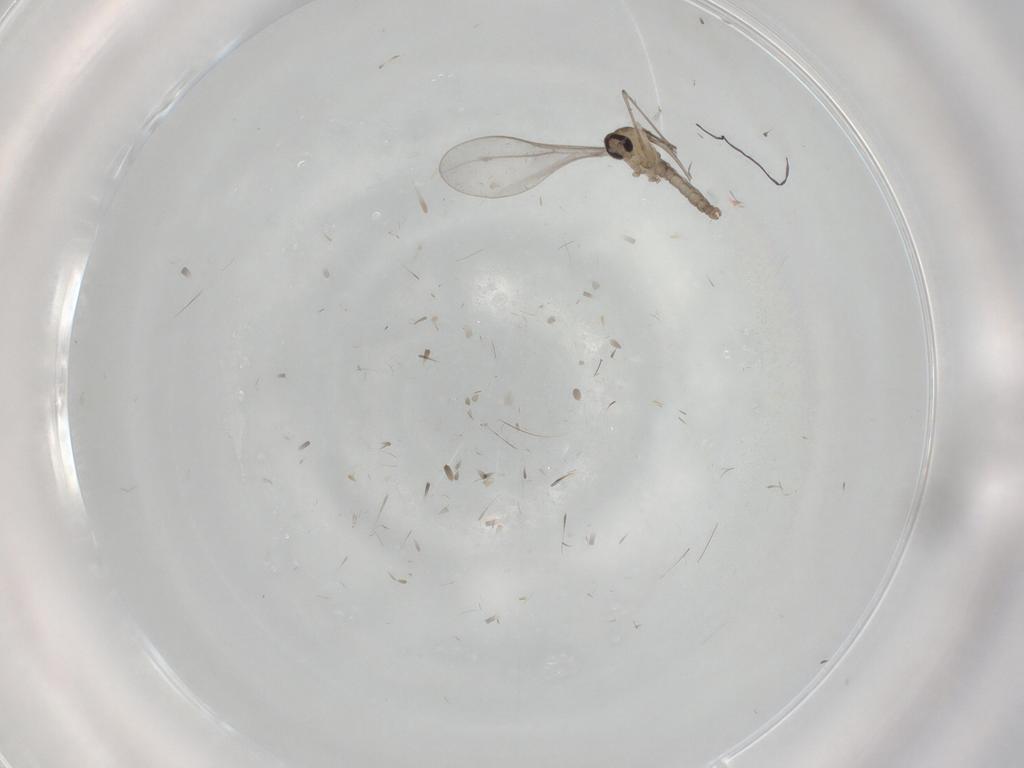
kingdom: Animalia
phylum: Arthropoda
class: Insecta
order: Diptera
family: Cecidomyiidae
